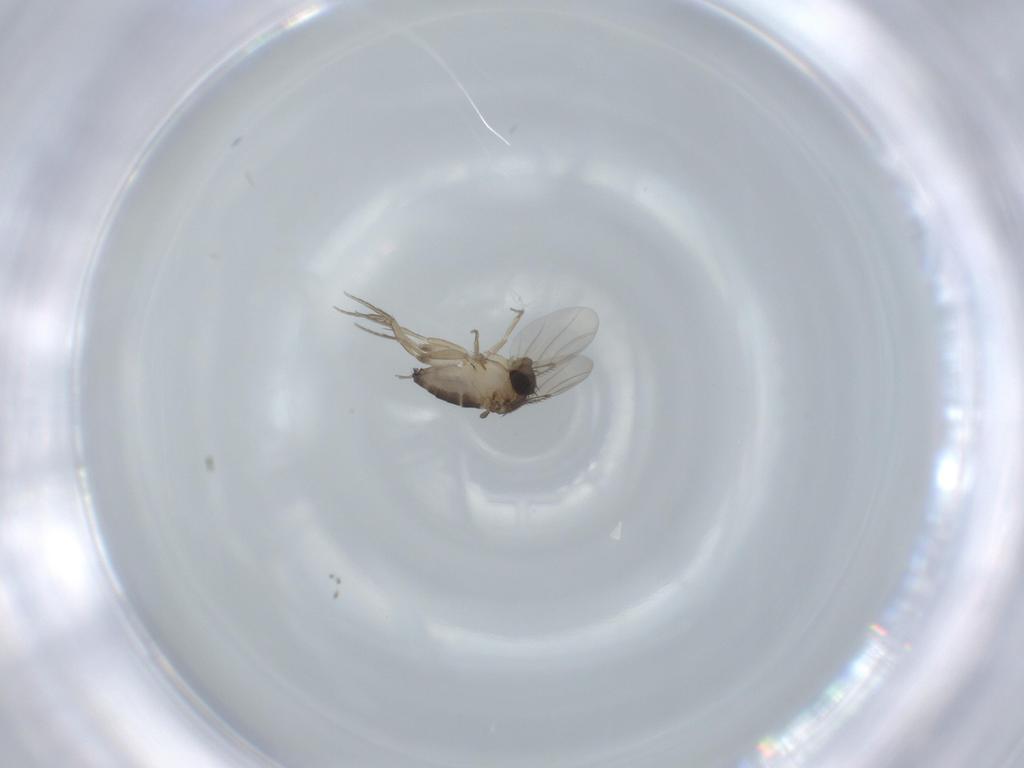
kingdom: Animalia
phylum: Arthropoda
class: Insecta
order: Diptera
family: Phoridae
